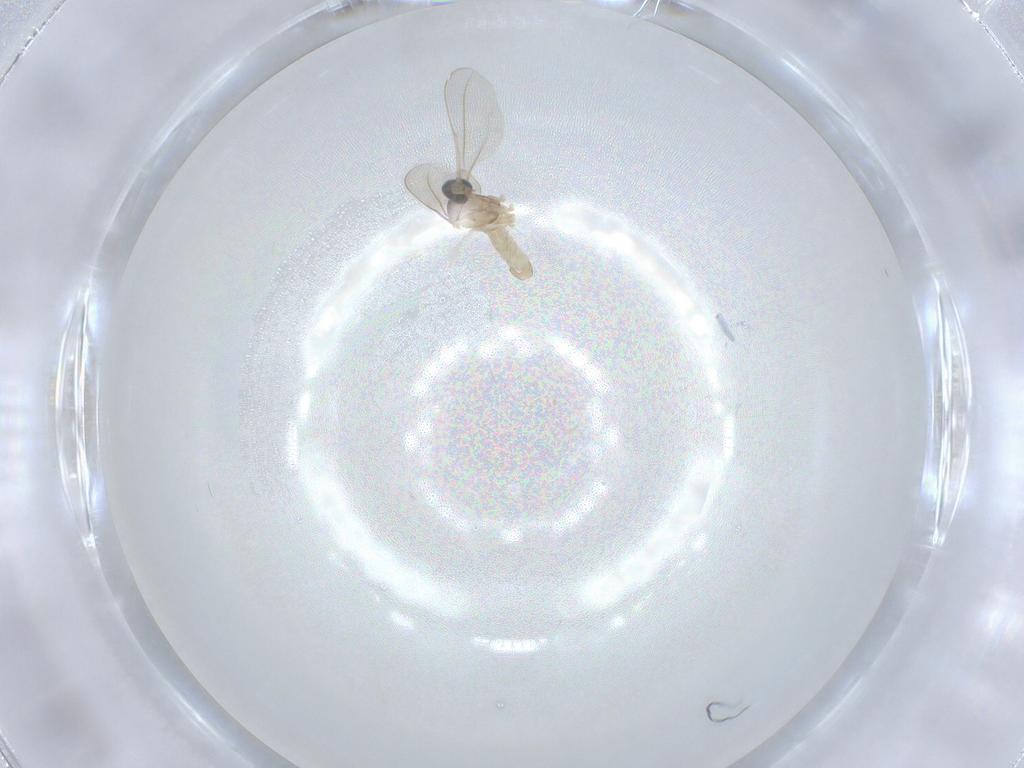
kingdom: Animalia
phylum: Arthropoda
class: Insecta
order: Diptera
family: Cecidomyiidae
